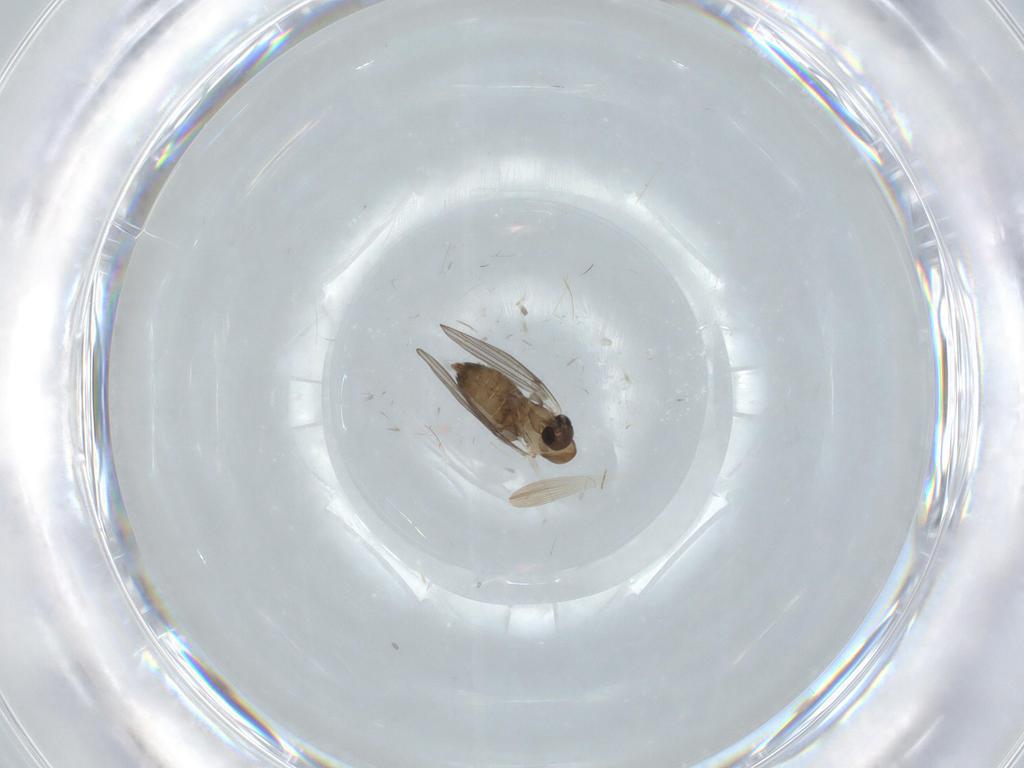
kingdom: Animalia
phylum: Arthropoda
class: Insecta
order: Diptera
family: Psychodidae
